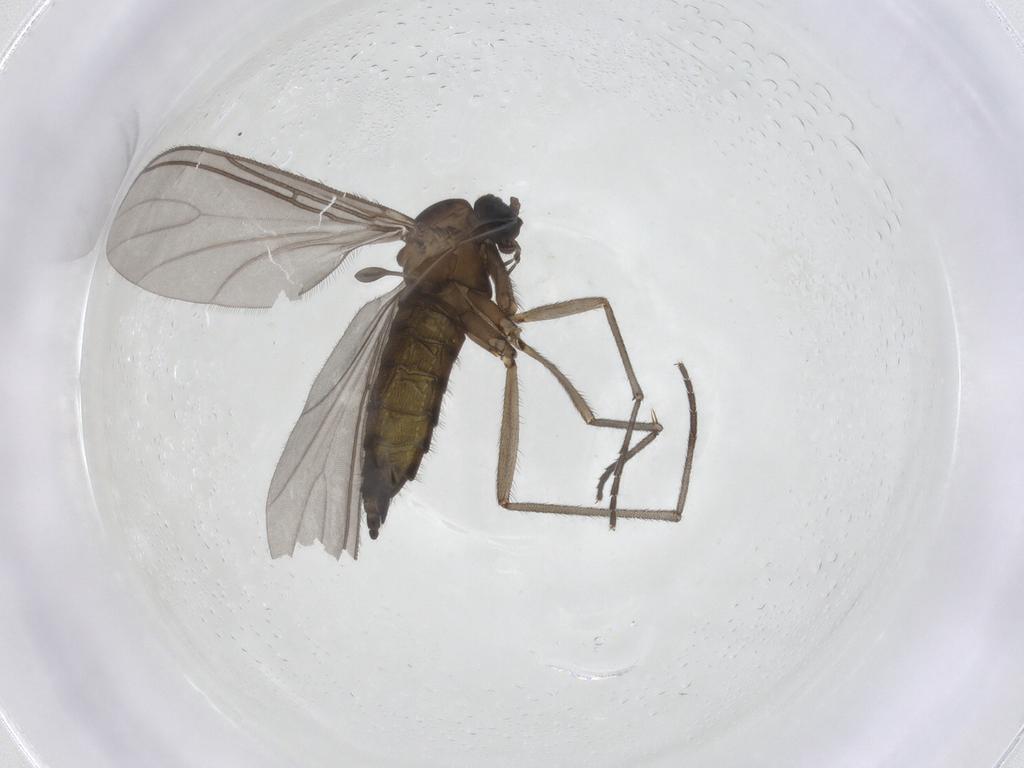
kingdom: Animalia
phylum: Arthropoda
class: Insecta
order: Diptera
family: Sciaridae
